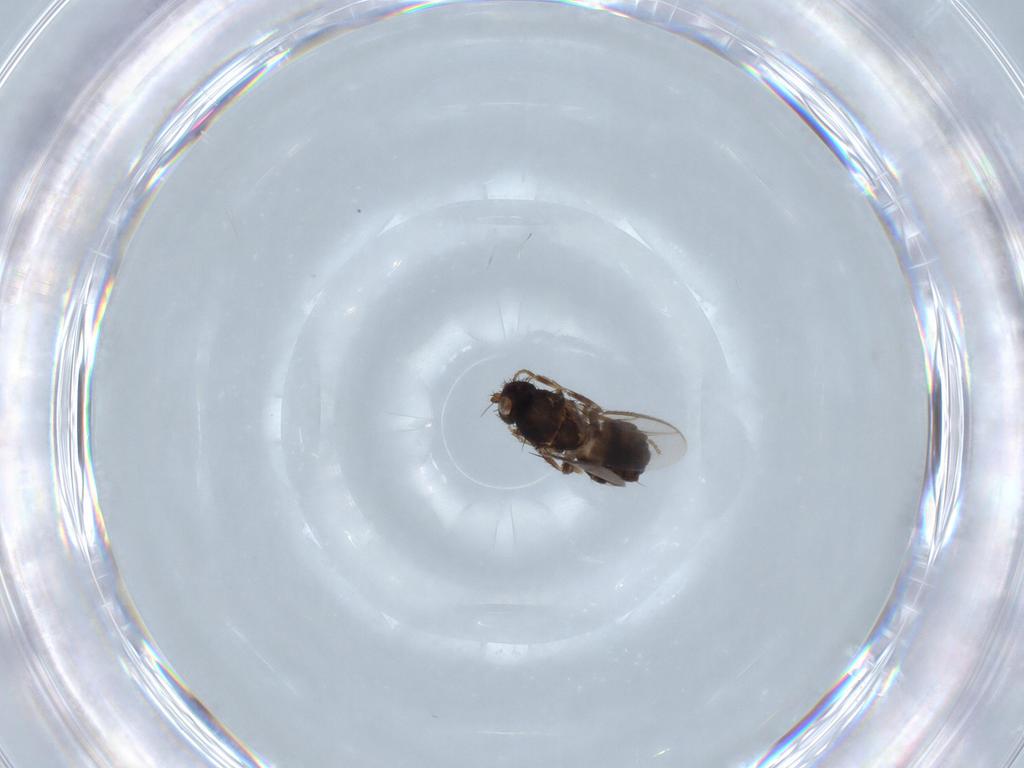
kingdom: Animalia
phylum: Arthropoda
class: Insecta
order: Diptera
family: Sphaeroceridae
